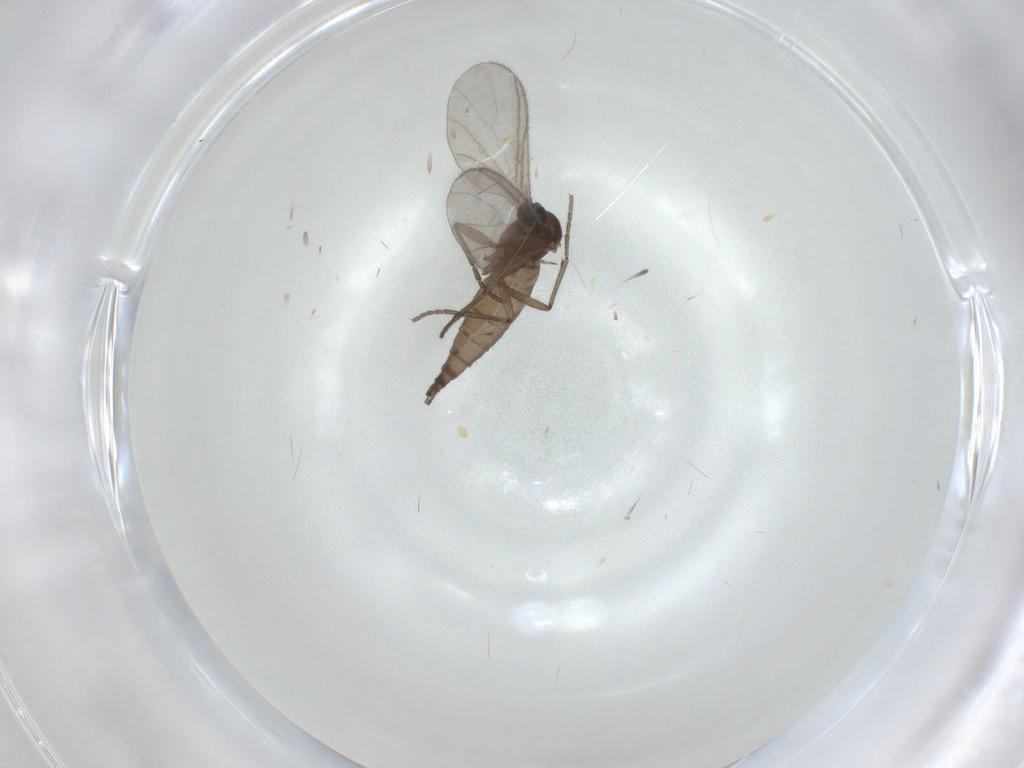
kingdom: Animalia
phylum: Arthropoda
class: Insecta
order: Diptera
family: Sciaridae
